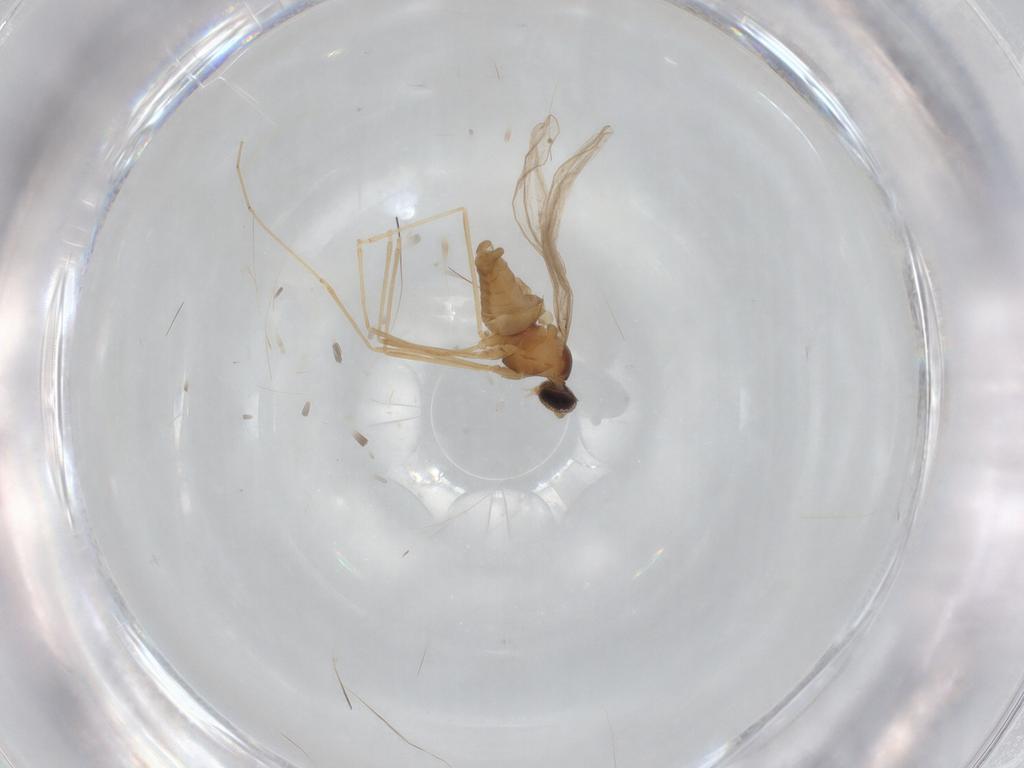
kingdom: Animalia
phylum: Arthropoda
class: Insecta
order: Diptera
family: Cecidomyiidae
